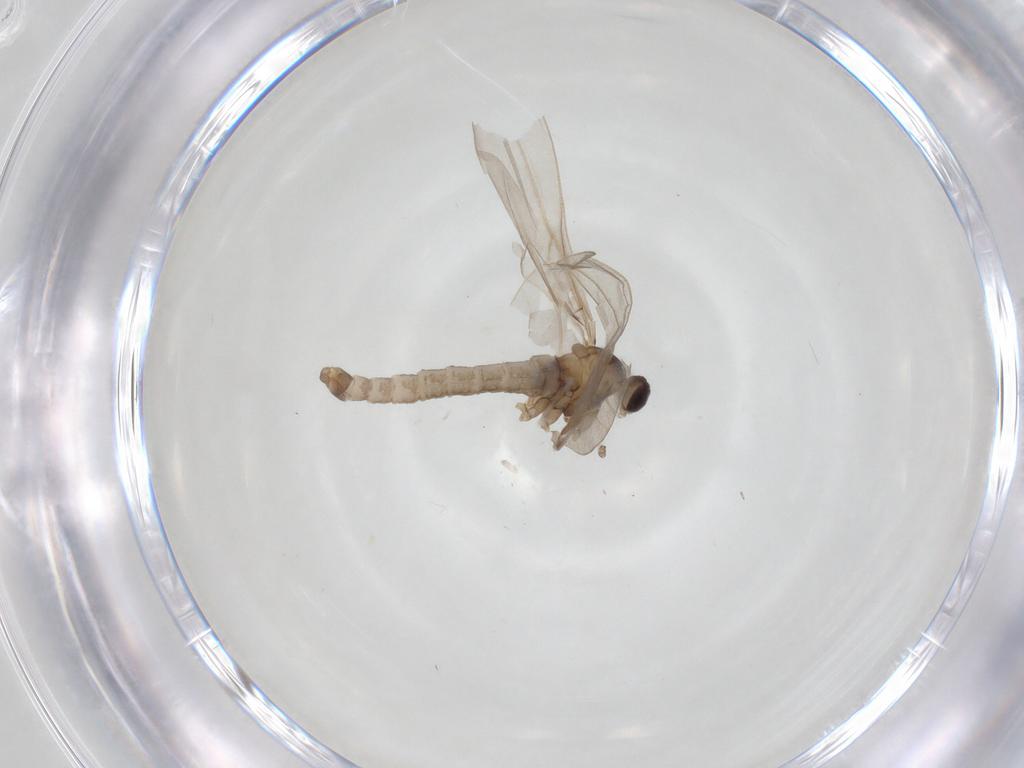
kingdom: Animalia
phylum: Arthropoda
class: Insecta
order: Diptera
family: Cecidomyiidae
